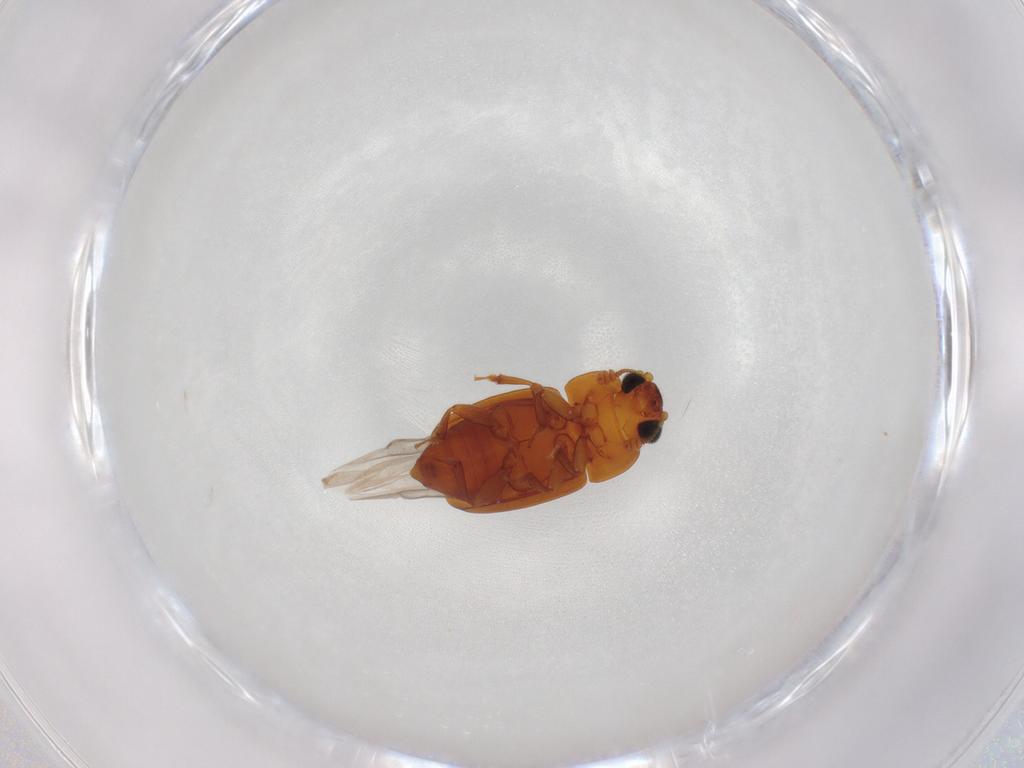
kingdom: Animalia
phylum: Arthropoda
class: Insecta
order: Coleoptera
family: Nitidulidae
